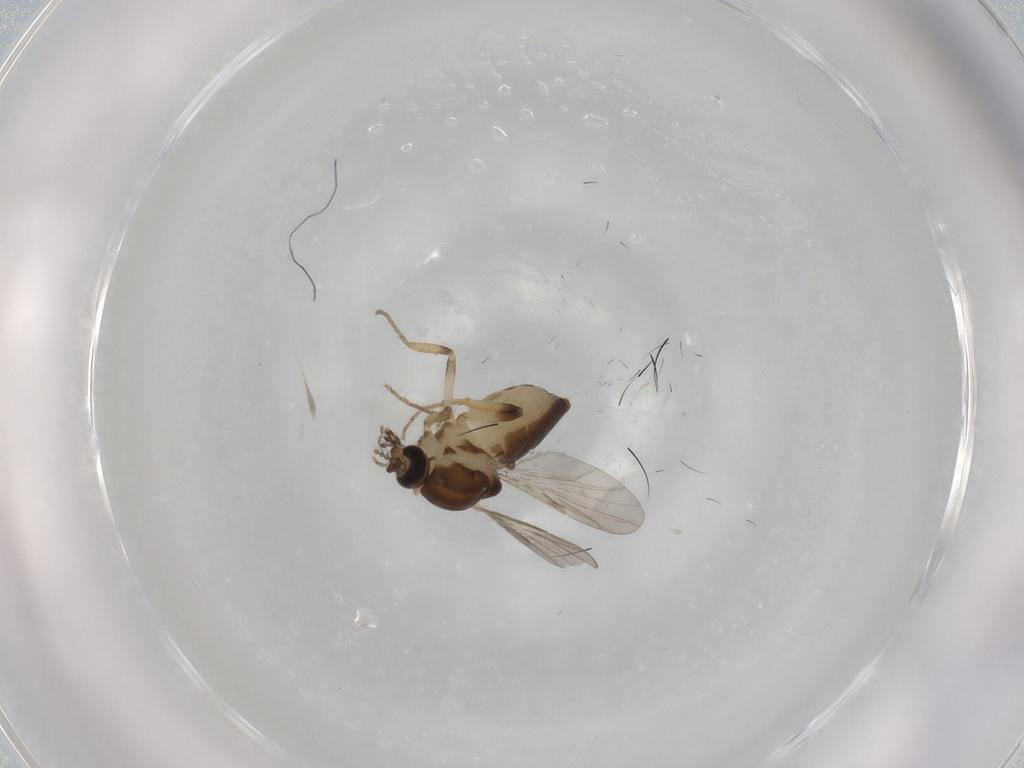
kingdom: Animalia
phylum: Arthropoda
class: Insecta
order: Diptera
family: Ceratopogonidae
